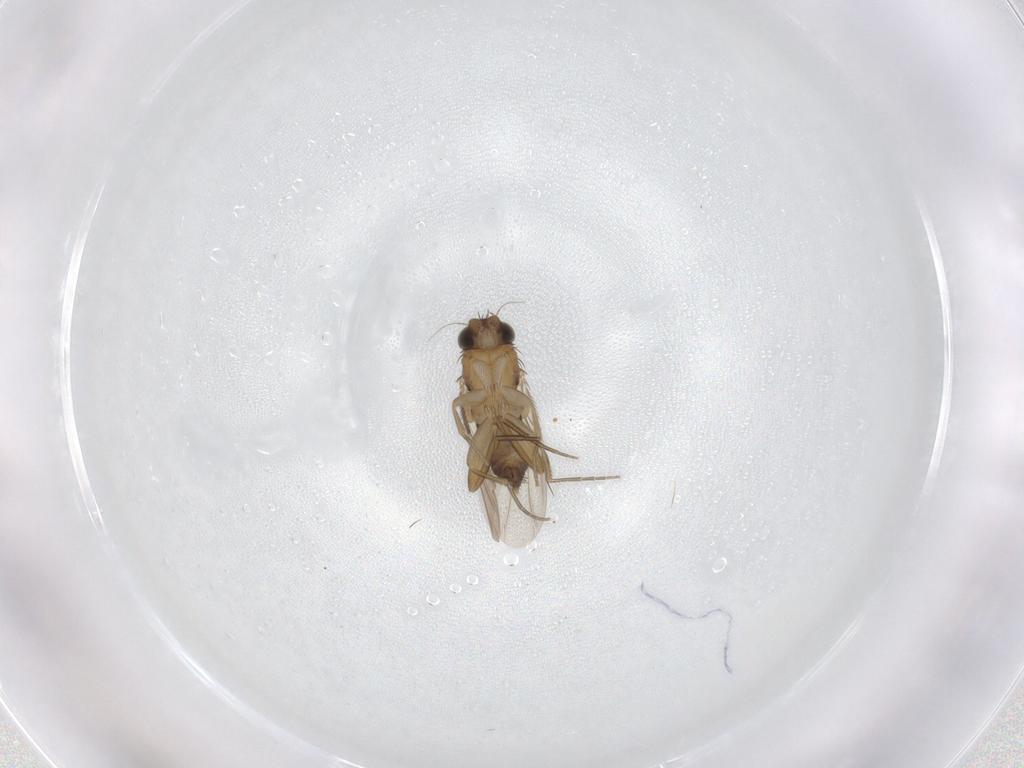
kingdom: Animalia
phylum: Arthropoda
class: Insecta
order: Diptera
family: Phoridae
